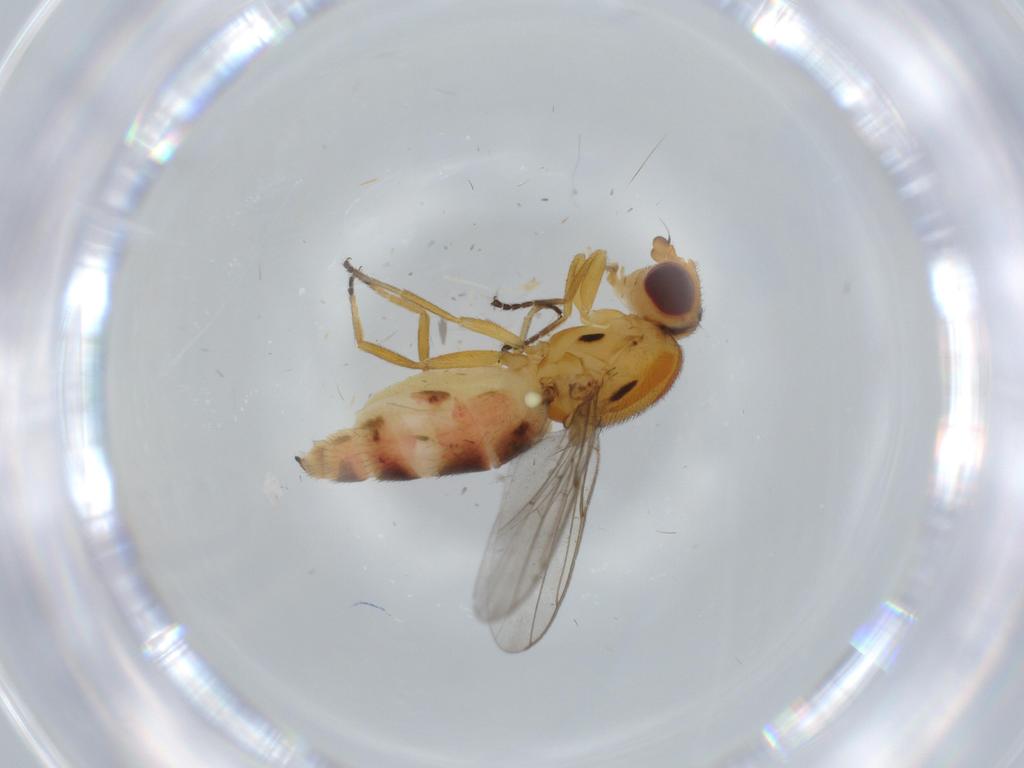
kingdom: Animalia
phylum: Arthropoda
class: Insecta
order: Diptera
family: Chloropidae
